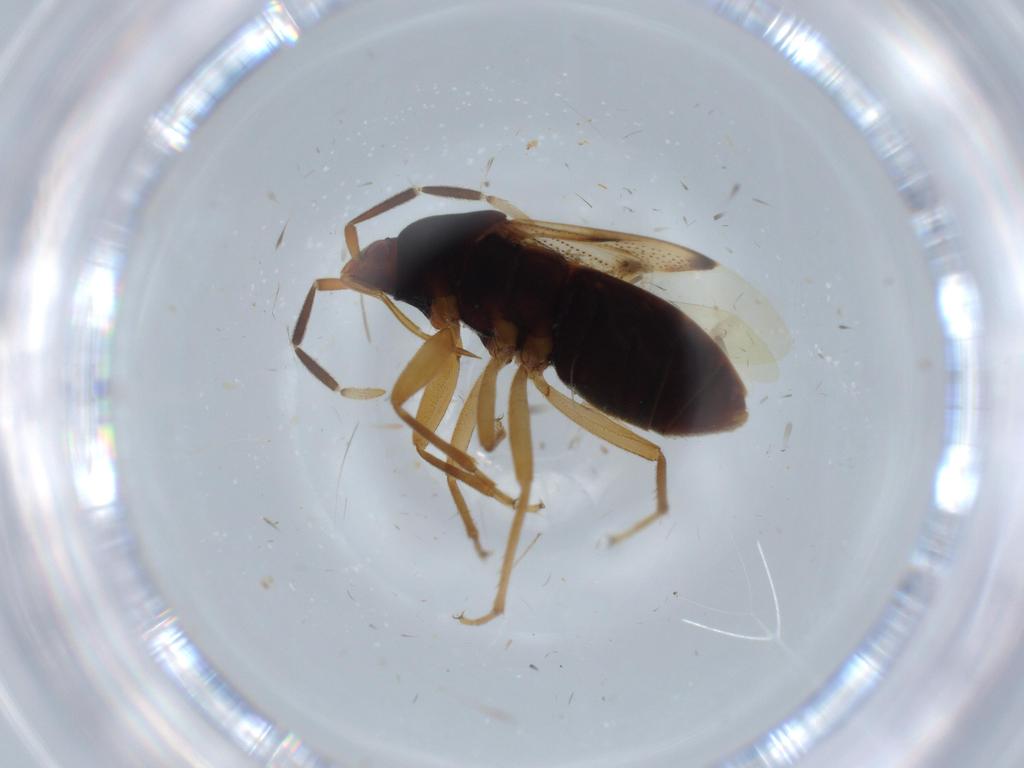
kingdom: Animalia
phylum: Arthropoda
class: Insecta
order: Hemiptera
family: Rhyparochromidae
